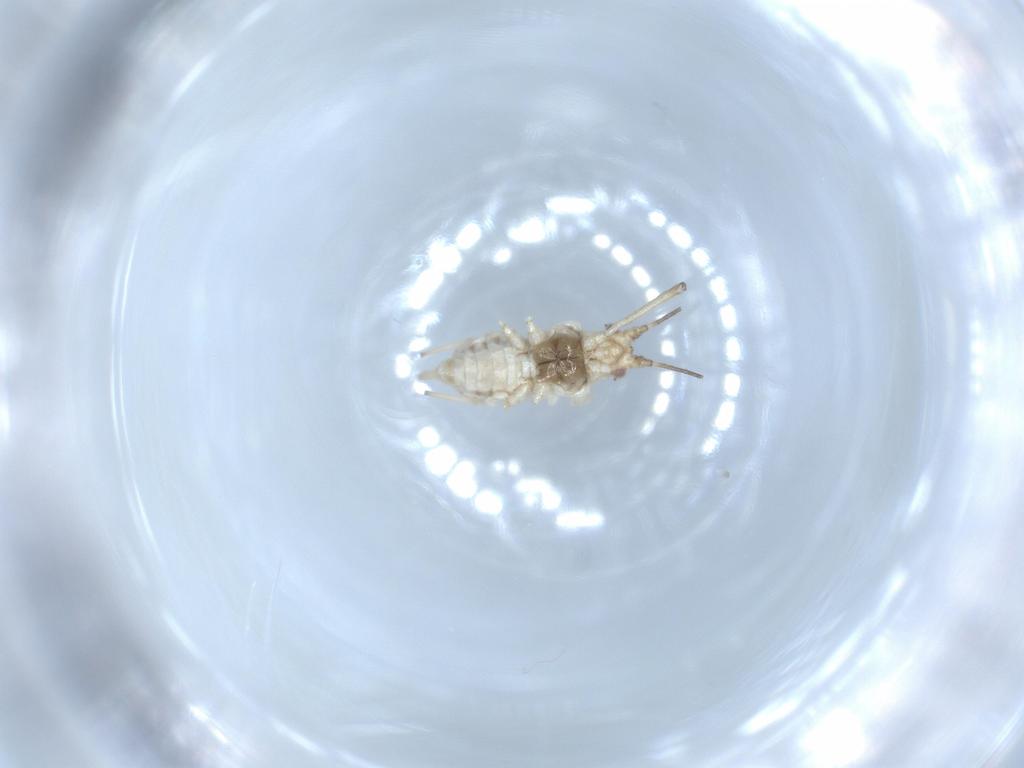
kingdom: Animalia
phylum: Arthropoda
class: Insecta
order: Hemiptera
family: Aphididae
